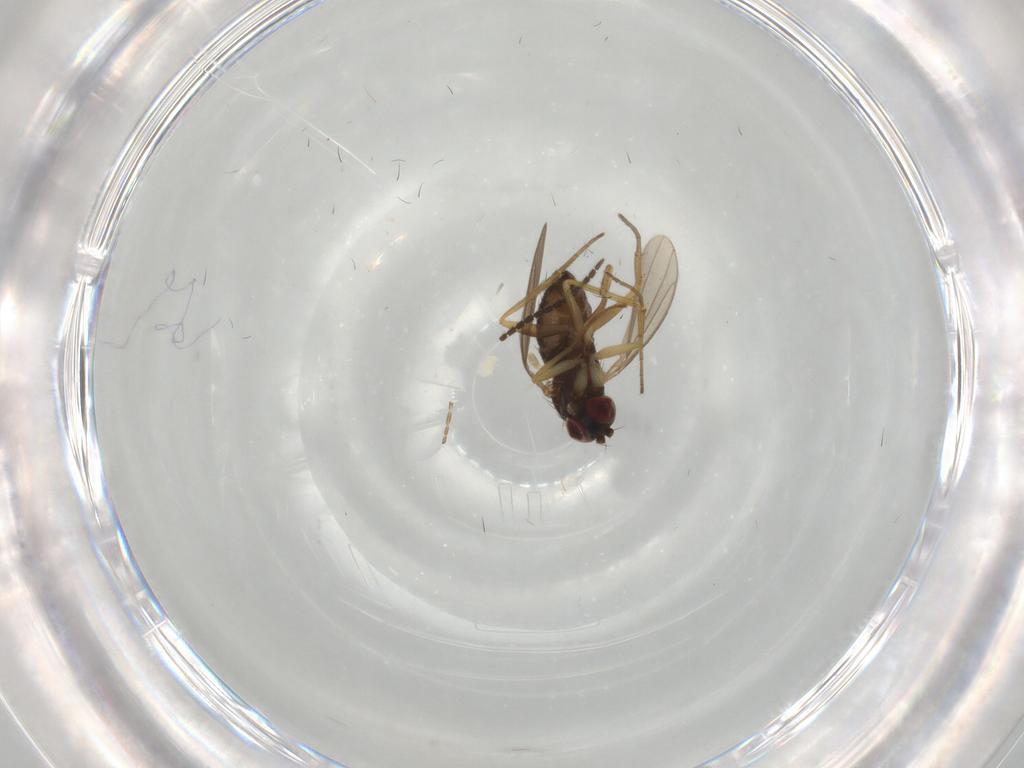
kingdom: Animalia
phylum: Arthropoda
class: Insecta
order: Diptera
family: Dolichopodidae
